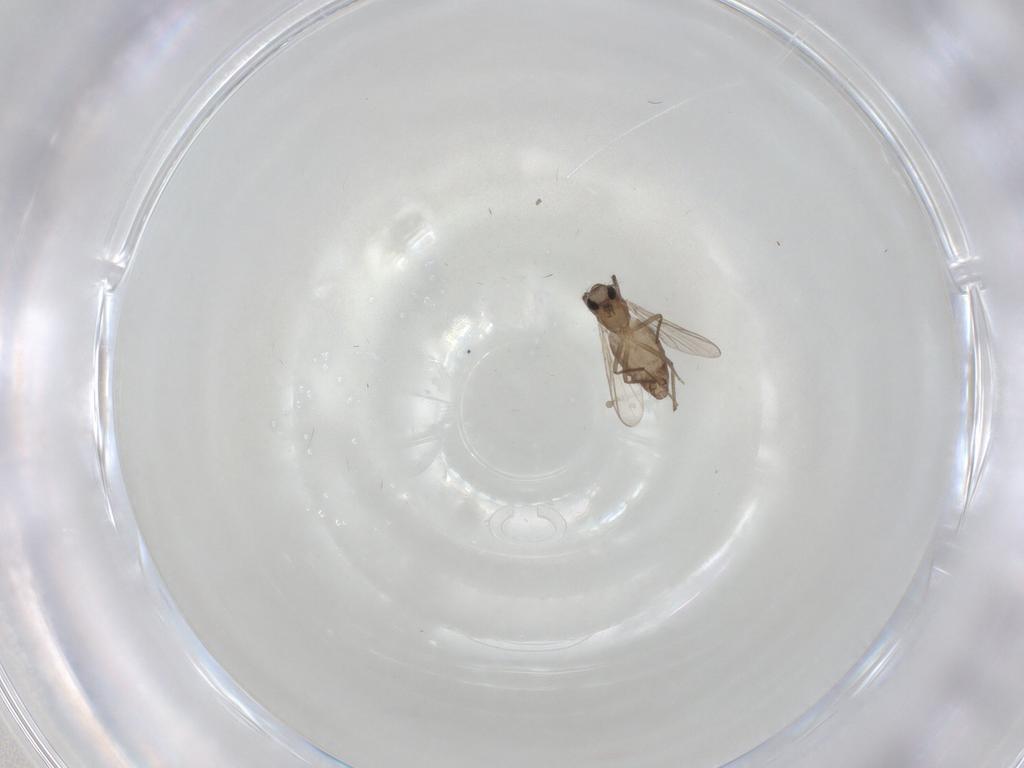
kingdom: Animalia
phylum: Arthropoda
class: Insecta
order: Diptera
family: Chironomidae
